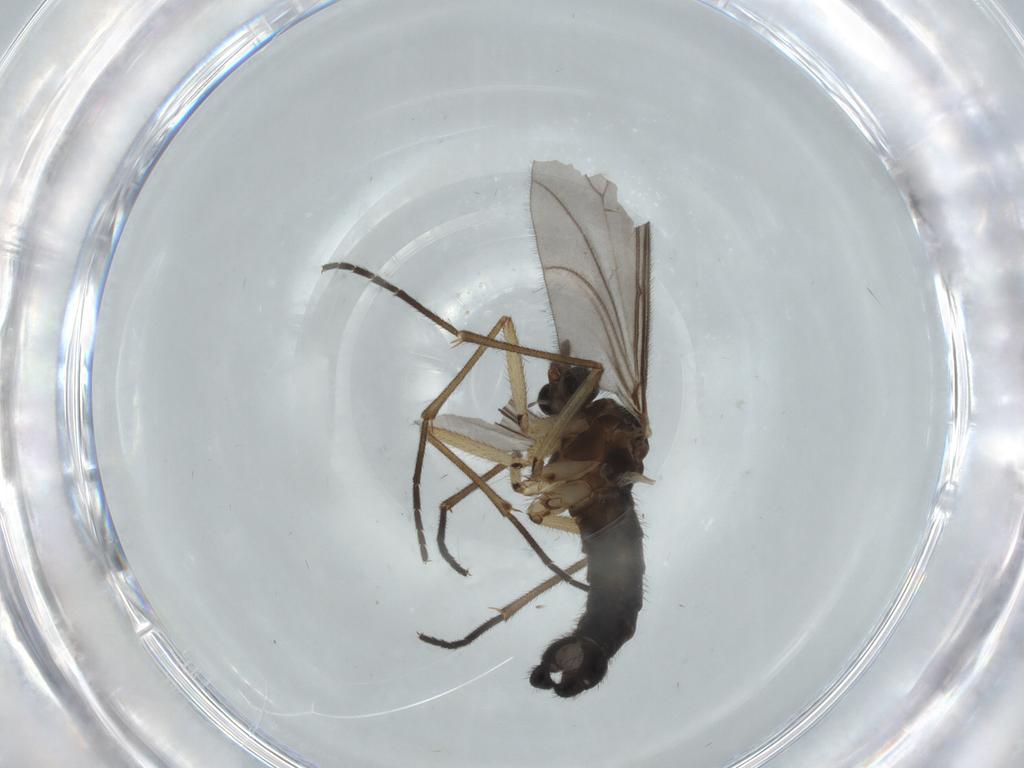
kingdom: Animalia
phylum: Arthropoda
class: Insecta
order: Diptera
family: Sciaridae
